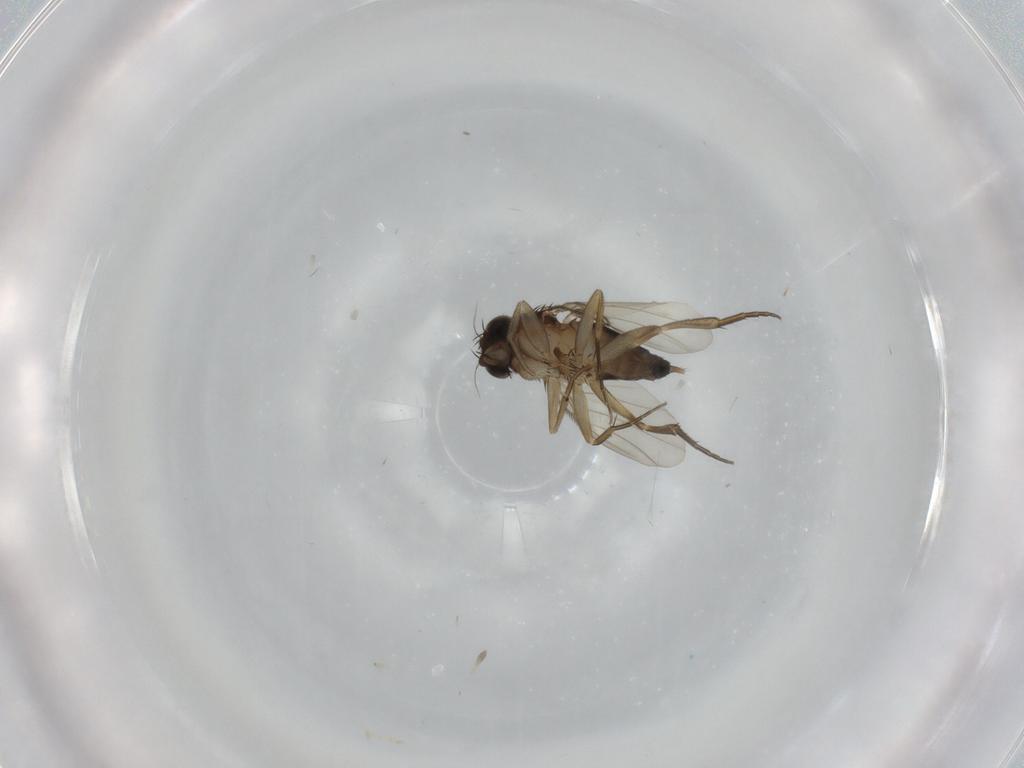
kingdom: Animalia
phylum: Arthropoda
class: Insecta
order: Diptera
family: Phoridae
